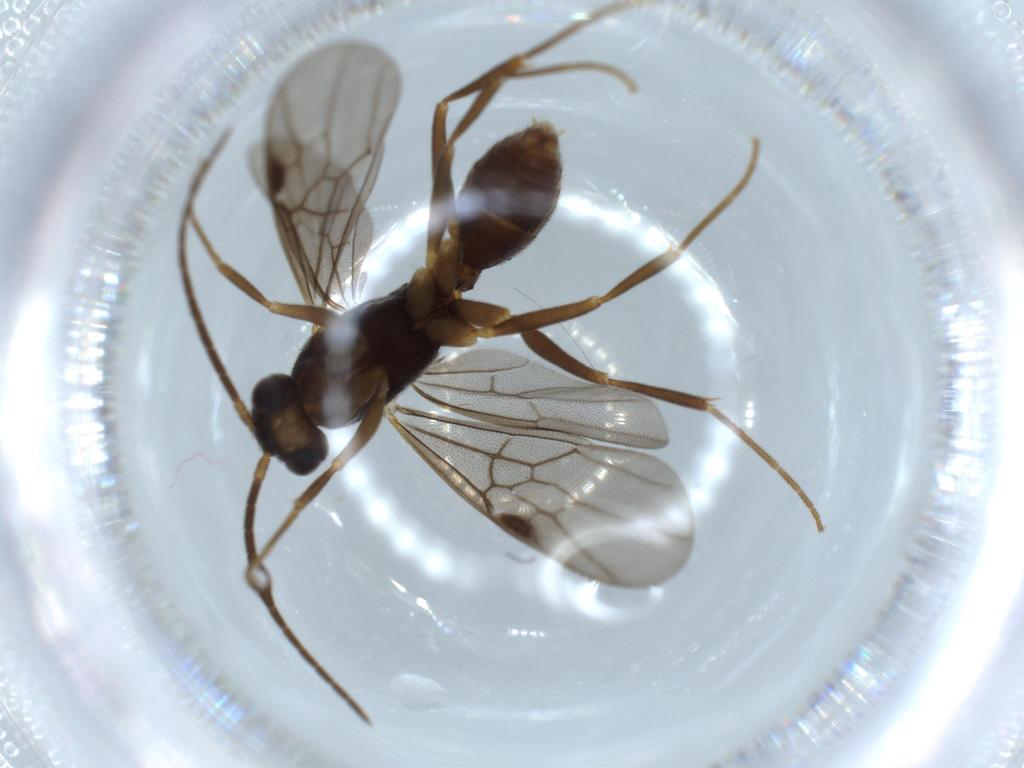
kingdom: Animalia
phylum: Arthropoda
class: Insecta
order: Hymenoptera
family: Formicidae
